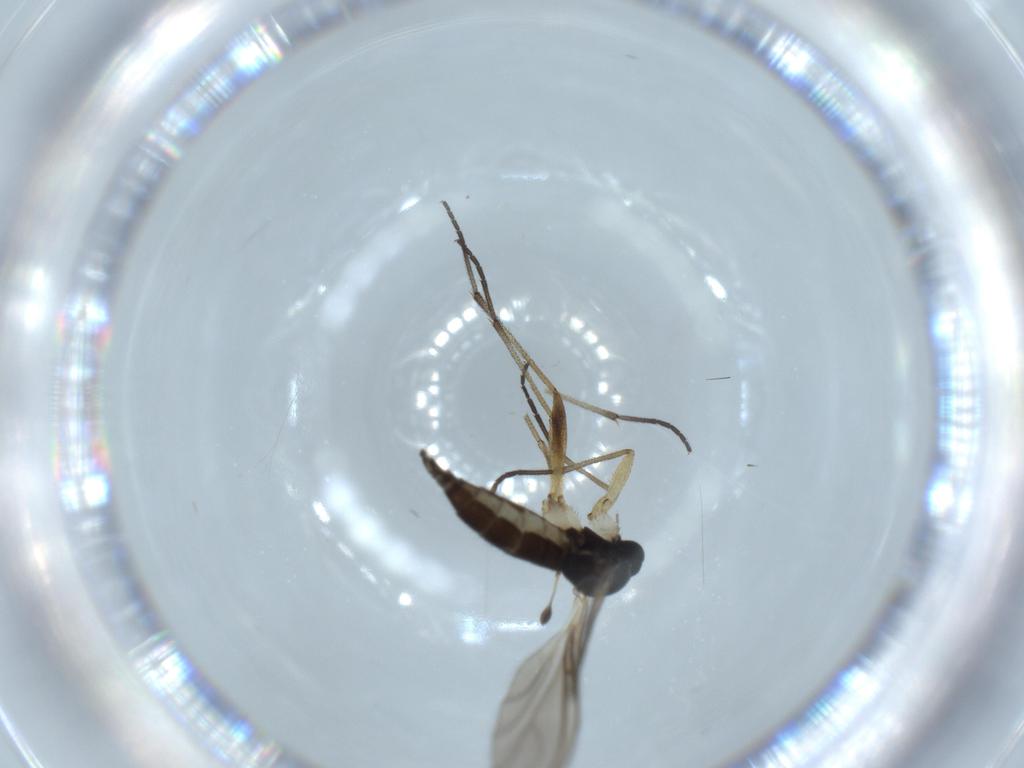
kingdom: Animalia
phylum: Arthropoda
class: Insecta
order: Diptera
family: Sciaridae
